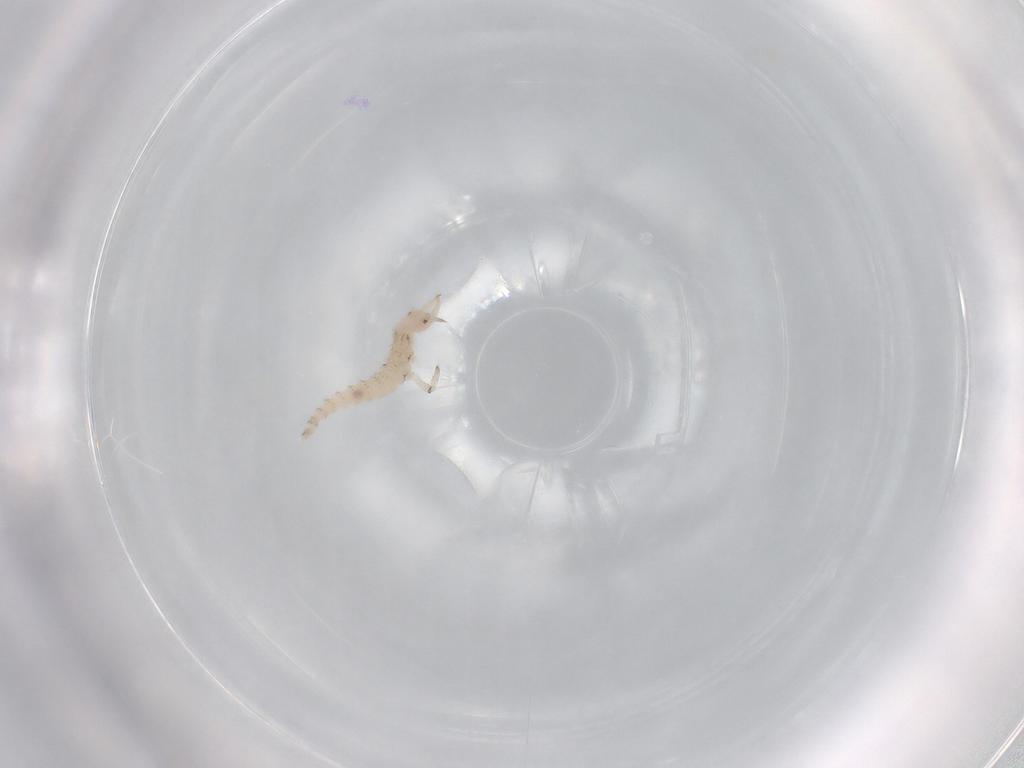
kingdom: Animalia
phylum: Arthropoda
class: Insecta
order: Neuroptera
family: Hemerobiidae
